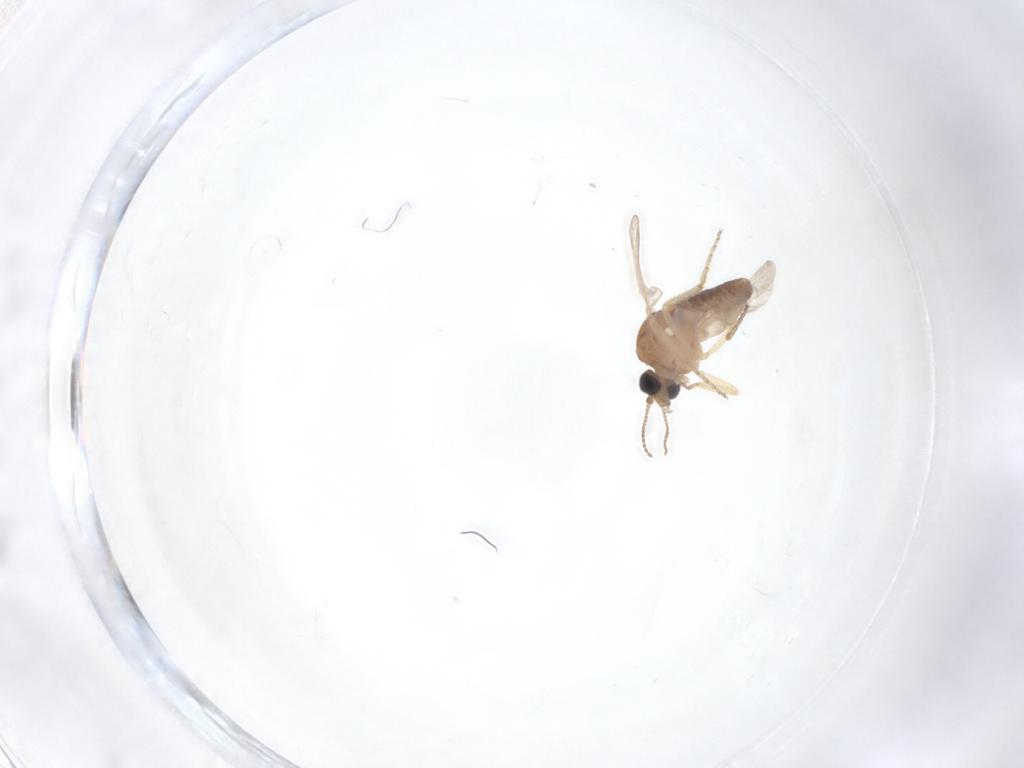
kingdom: Animalia
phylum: Arthropoda
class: Insecta
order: Diptera
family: Ceratopogonidae
